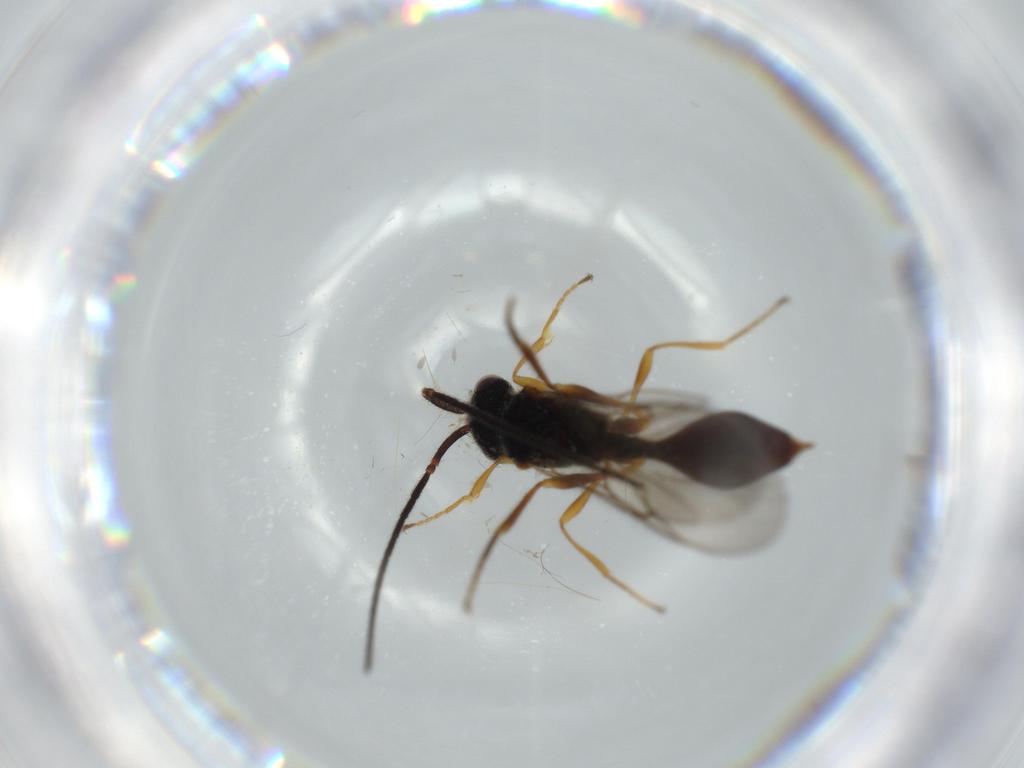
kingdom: Animalia
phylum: Arthropoda
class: Insecta
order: Hymenoptera
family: Diapriidae
